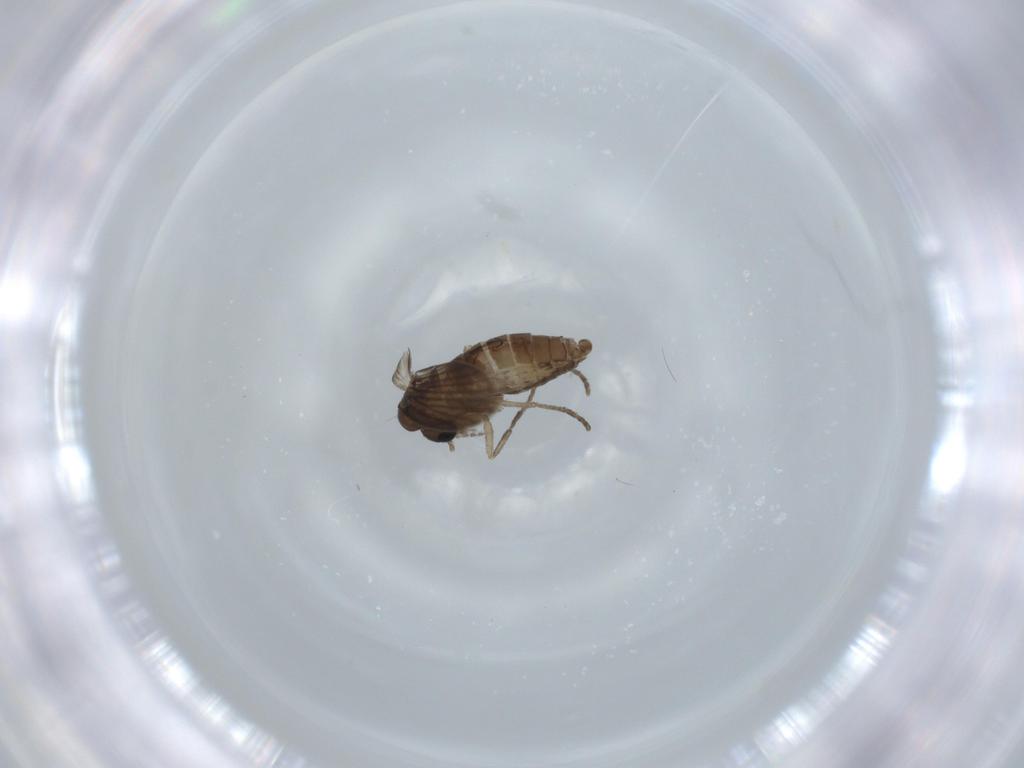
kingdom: Animalia
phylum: Arthropoda
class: Insecta
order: Diptera
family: Psychodidae
